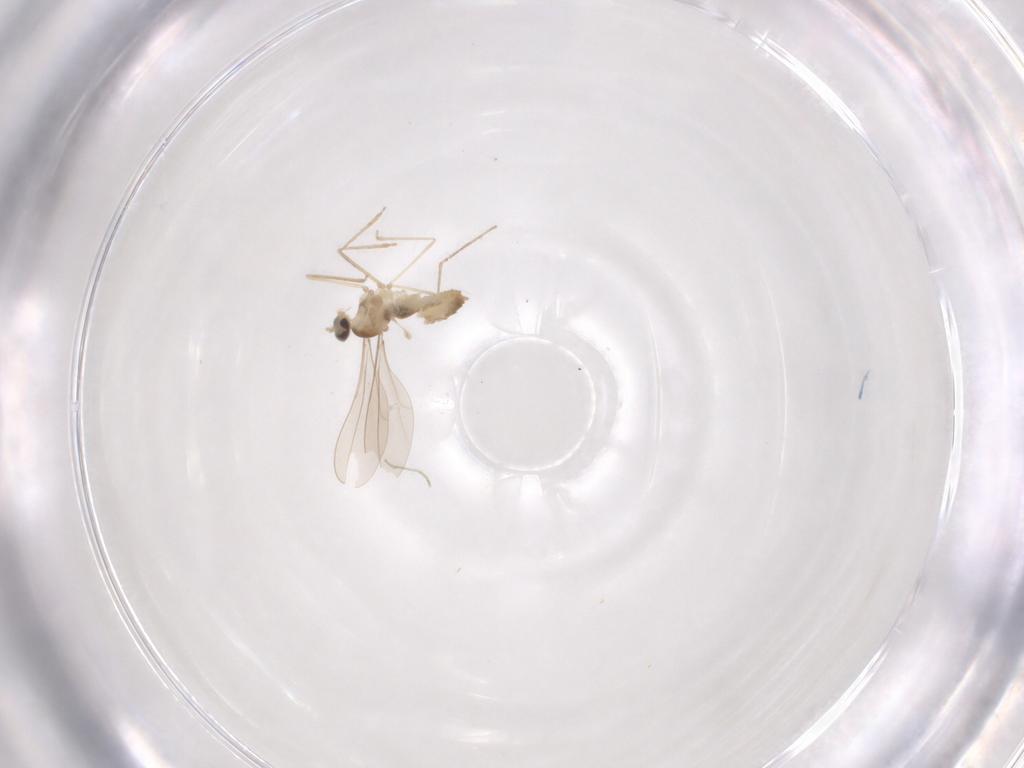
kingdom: Animalia
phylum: Arthropoda
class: Insecta
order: Diptera
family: Cecidomyiidae
